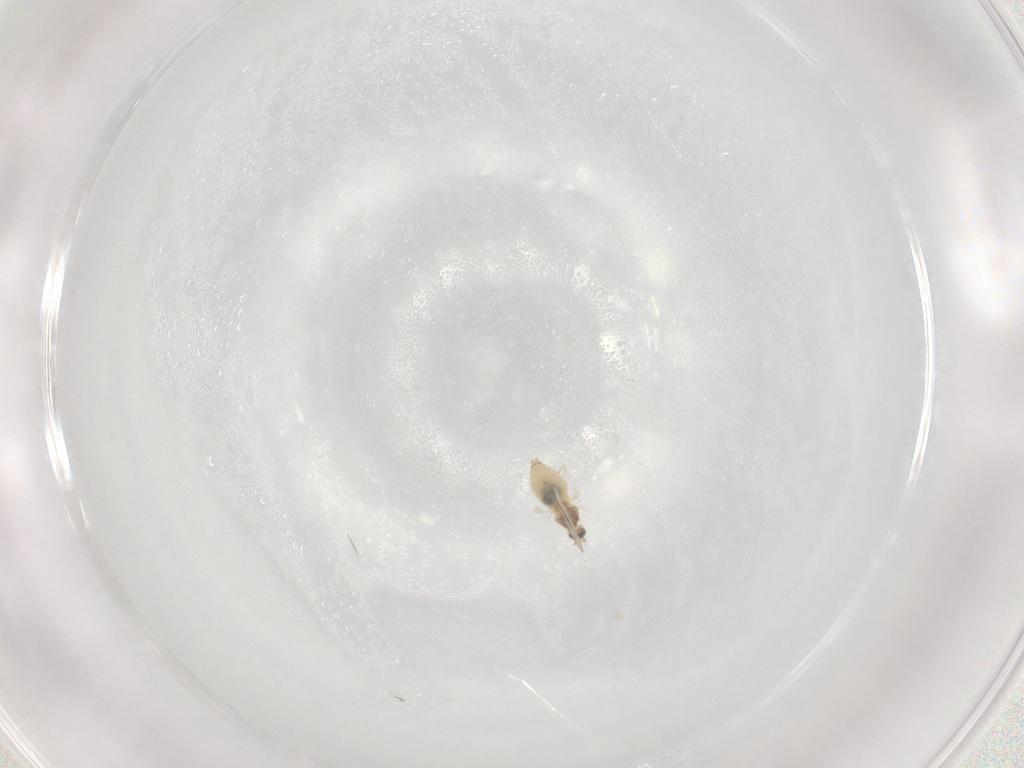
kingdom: Animalia
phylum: Arthropoda
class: Insecta
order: Diptera
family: Cecidomyiidae
